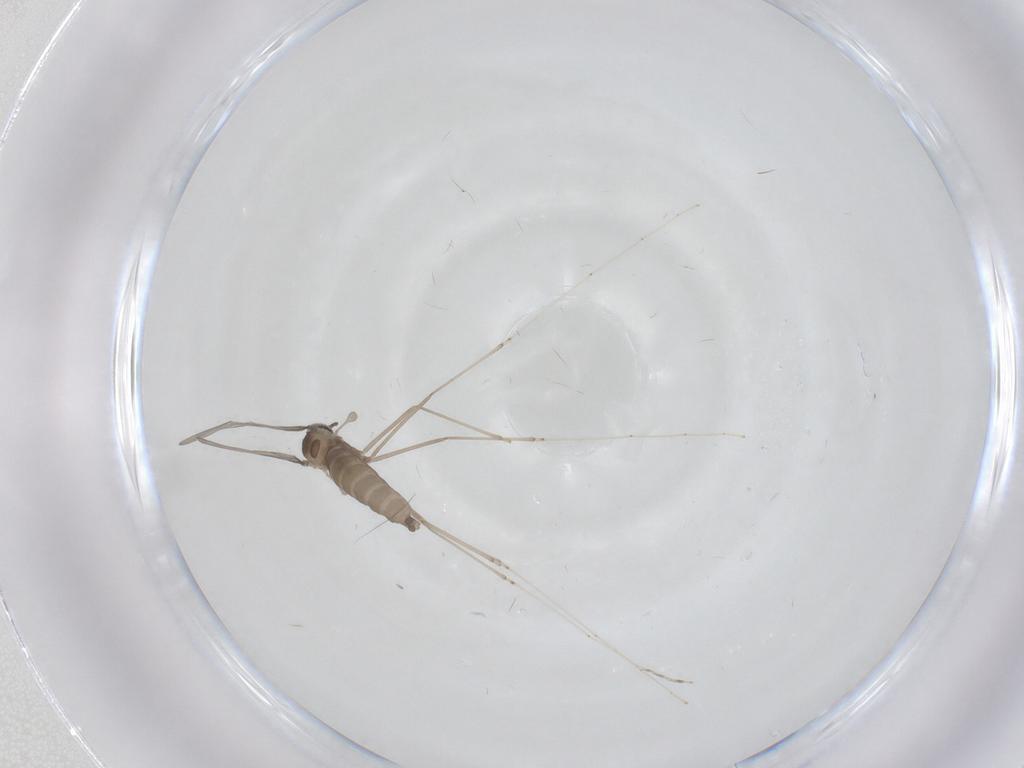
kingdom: Animalia
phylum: Arthropoda
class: Insecta
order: Diptera
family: Cecidomyiidae
